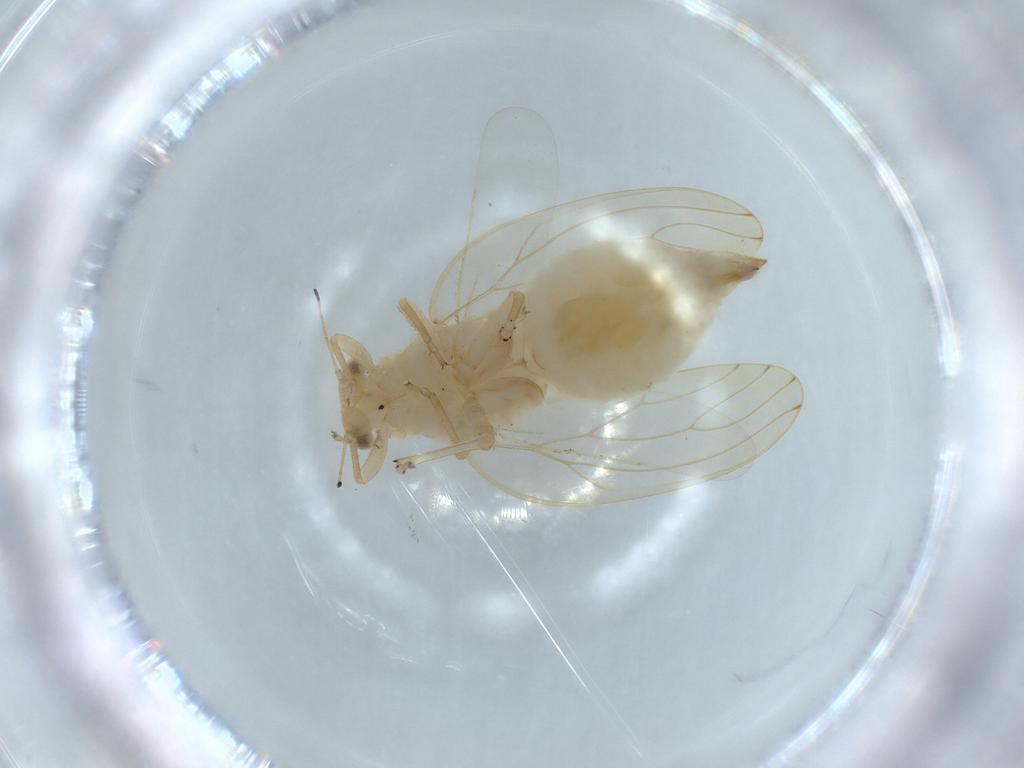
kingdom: Animalia
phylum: Arthropoda
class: Insecta
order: Hemiptera
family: Triozidae
